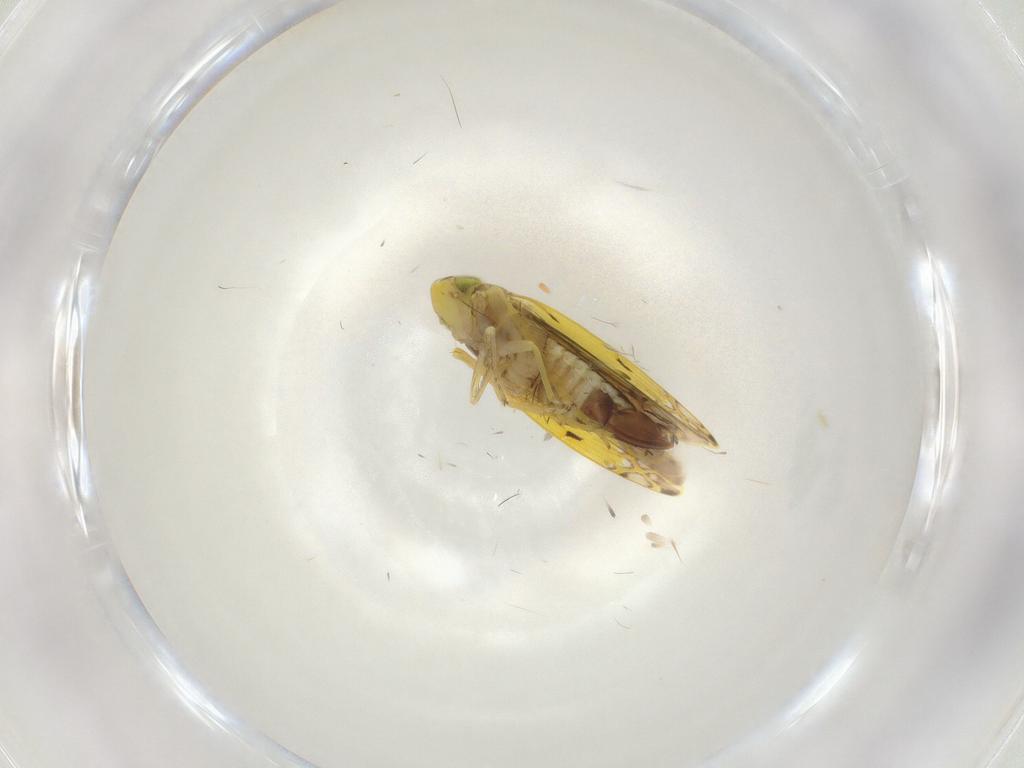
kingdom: Animalia
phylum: Arthropoda
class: Insecta
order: Hemiptera
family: Cicadellidae
